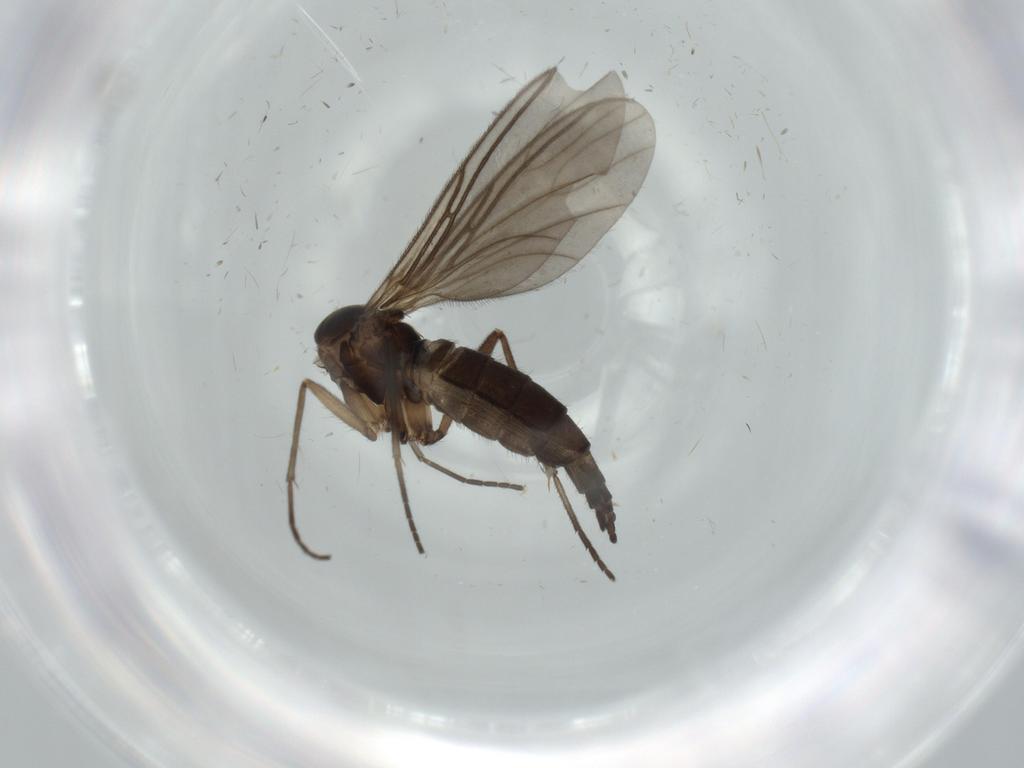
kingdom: Animalia
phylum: Arthropoda
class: Insecta
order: Diptera
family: Sciaridae
